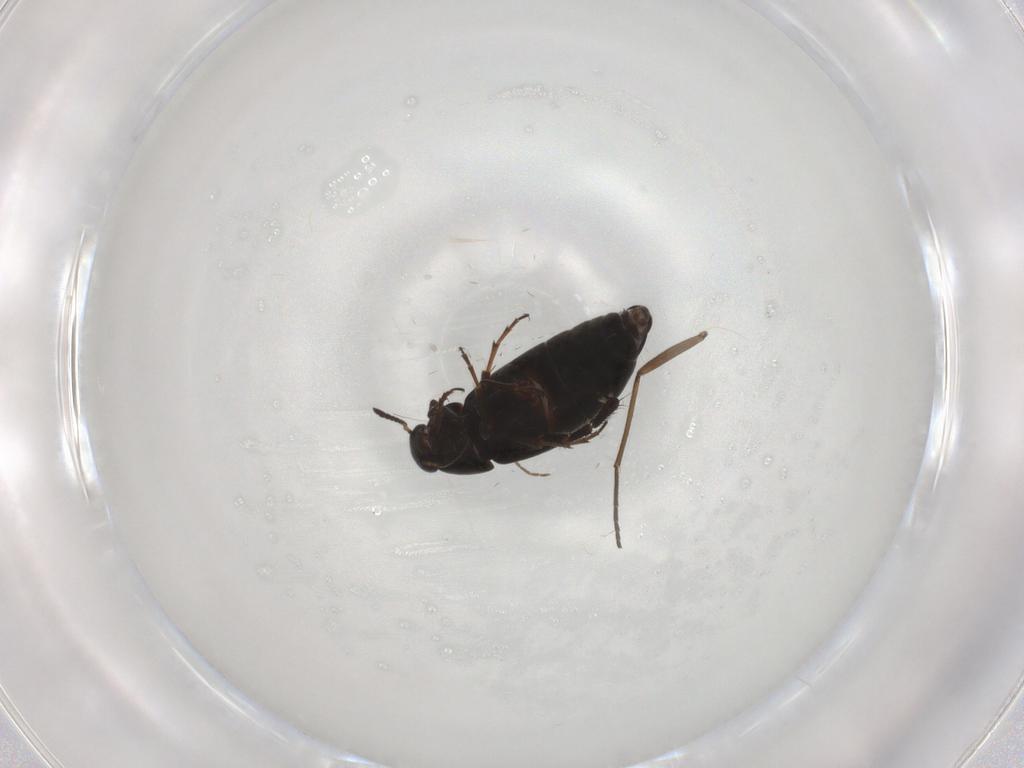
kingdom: Animalia
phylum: Arthropoda
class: Insecta
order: Coleoptera
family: Scraptiidae
